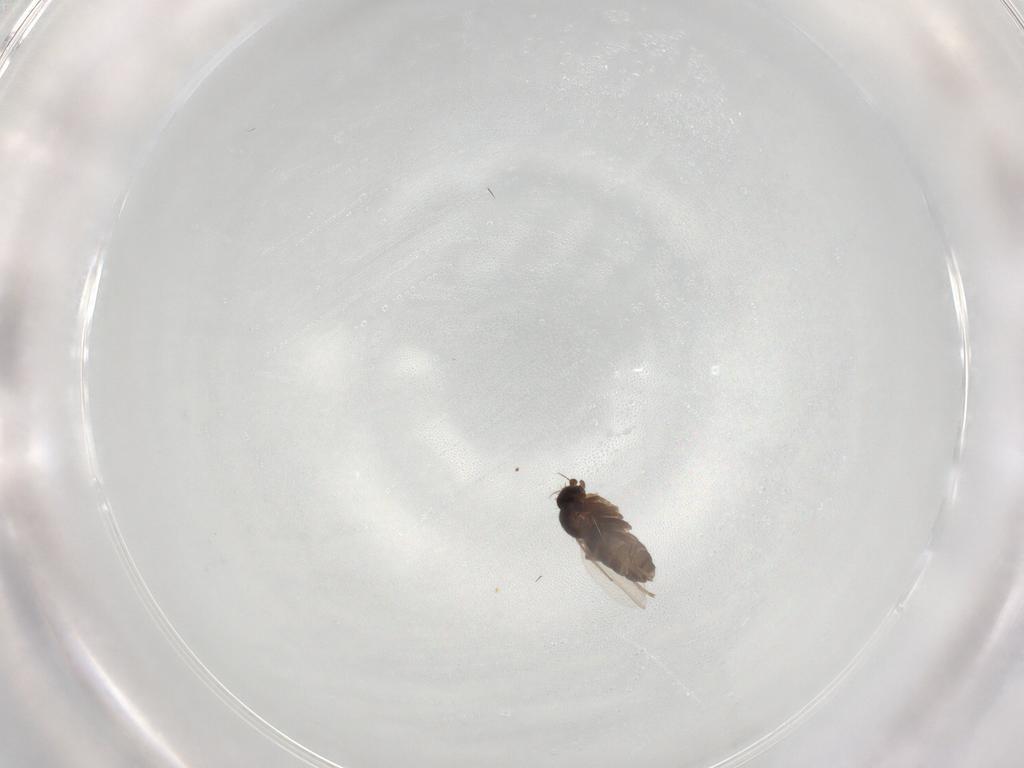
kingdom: Animalia
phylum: Arthropoda
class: Insecta
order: Diptera
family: Phoridae
